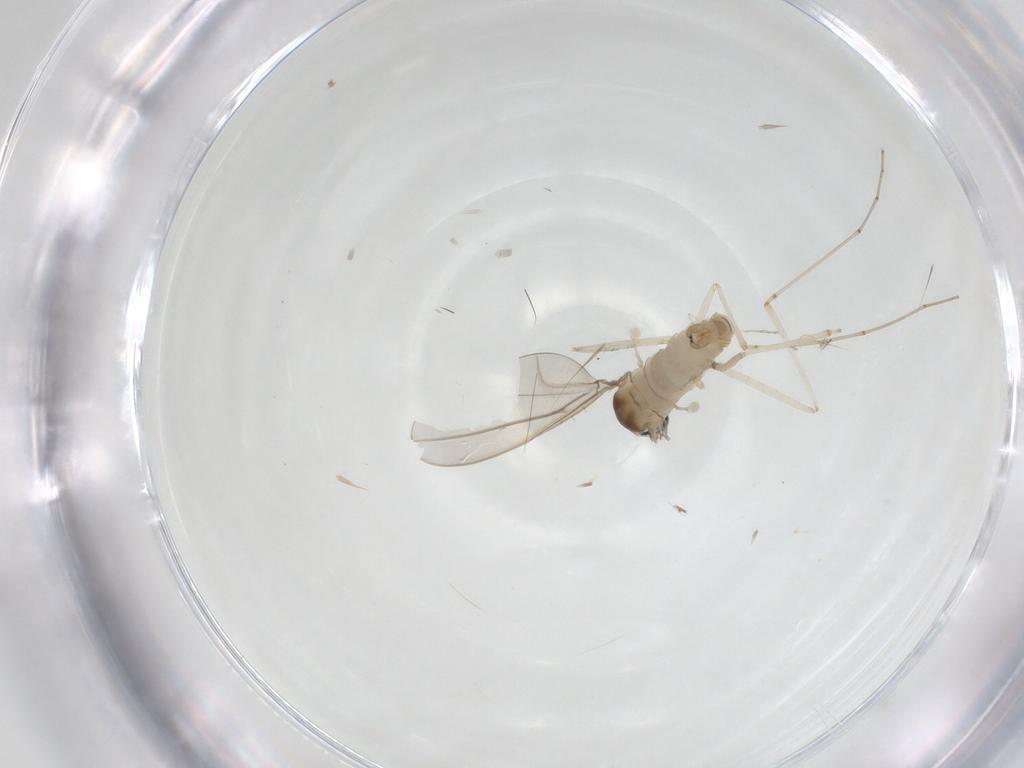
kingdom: Animalia
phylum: Arthropoda
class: Insecta
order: Diptera
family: Cecidomyiidae
